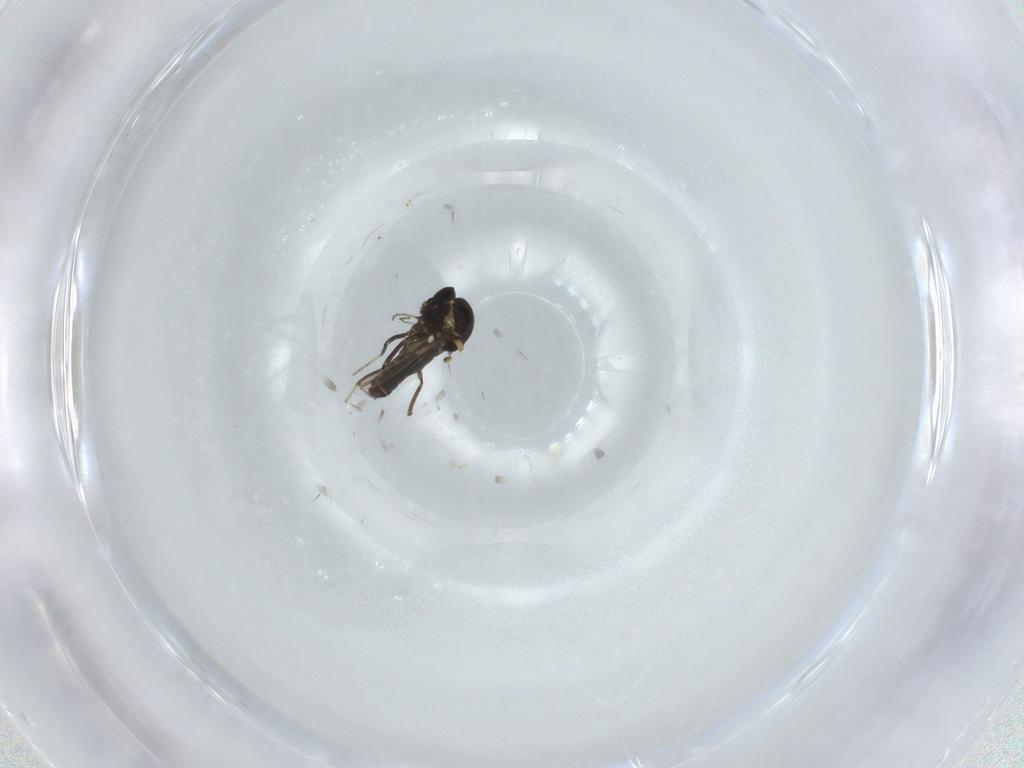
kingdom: Animalia
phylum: Arthropoda
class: Insecta
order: Diptera
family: Ceratopogonidae
